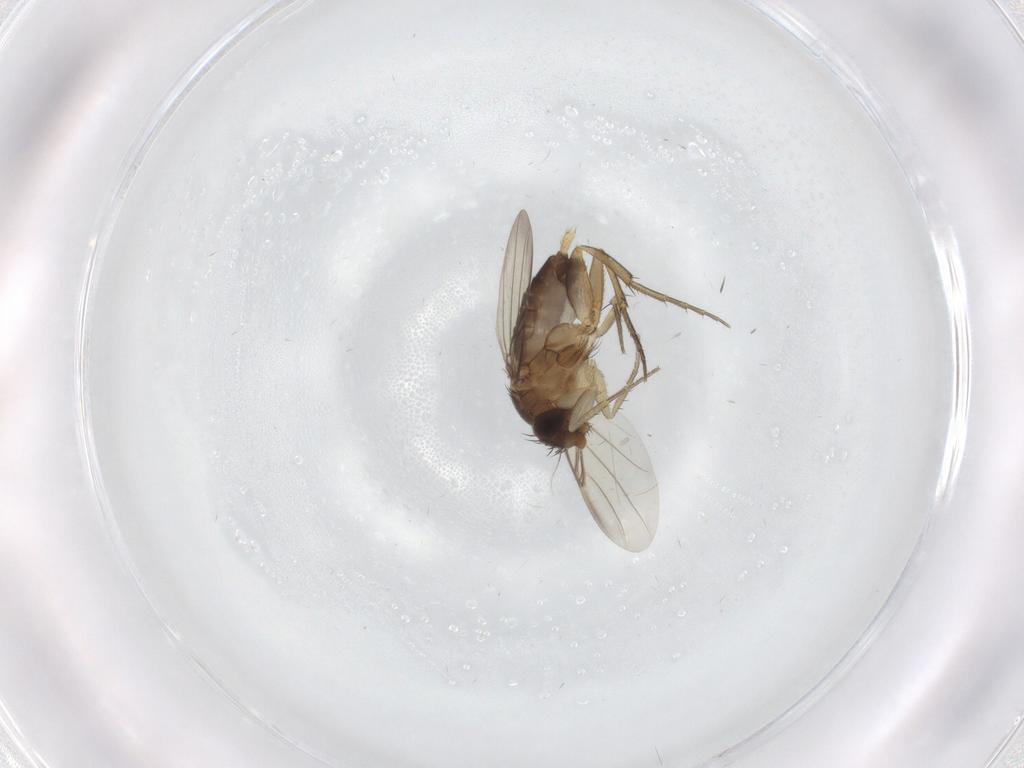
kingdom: Animalia
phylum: Arthropoda
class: Insecta
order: Diptera
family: Phoridae
